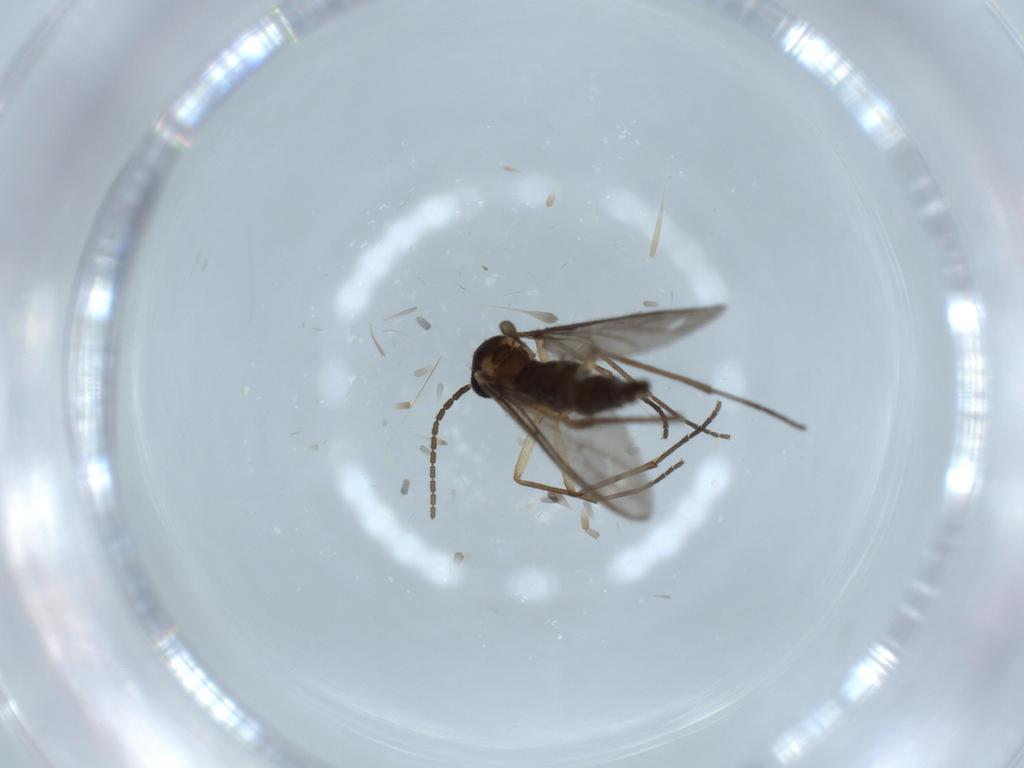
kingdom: Animalia
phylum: Arthropoda
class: Insecta
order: Diptera
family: Sciaridae
